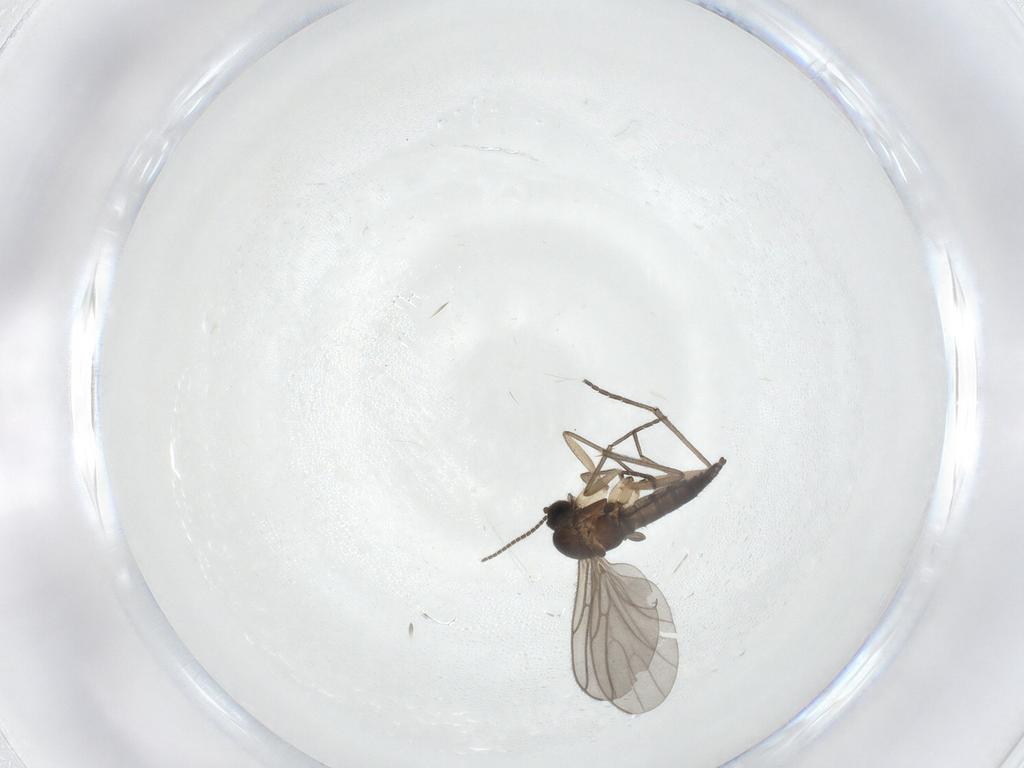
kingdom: Animalia
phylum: Arthropoda
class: Insecta
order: Diptera
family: Sciaridae
